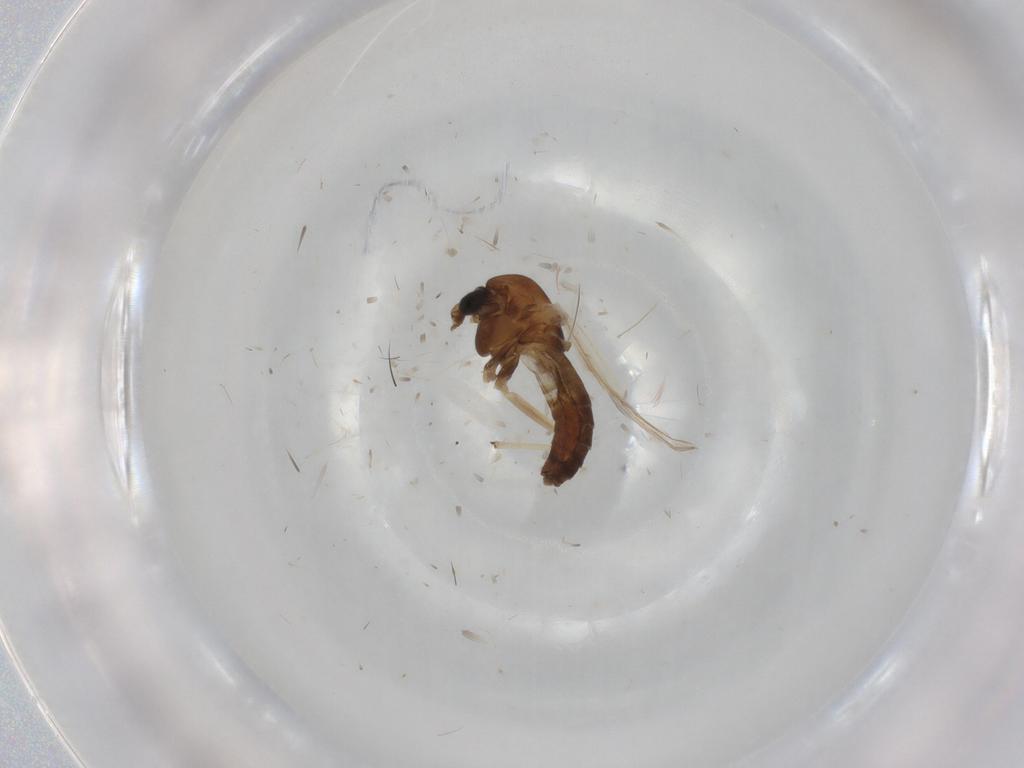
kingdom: Animalia
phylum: Arthropoda
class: Insecta
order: Diptera
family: Chironomidae
